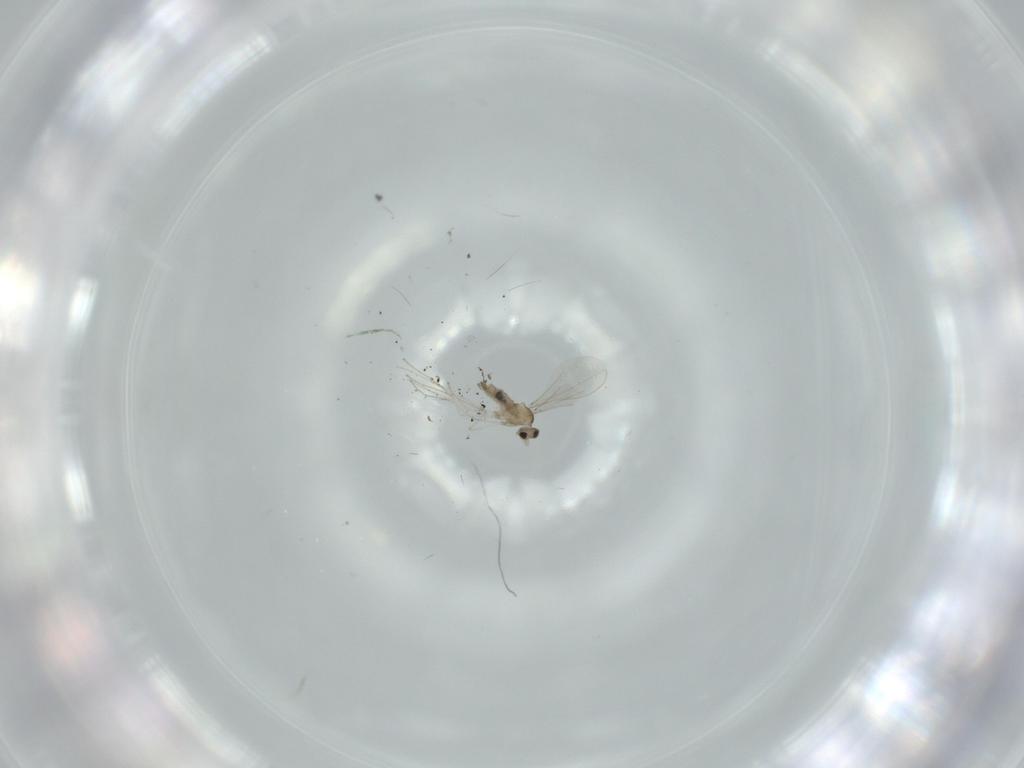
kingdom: Animalia
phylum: Arthropoda
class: Insecta
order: Diptera
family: Cecidomyiidae
